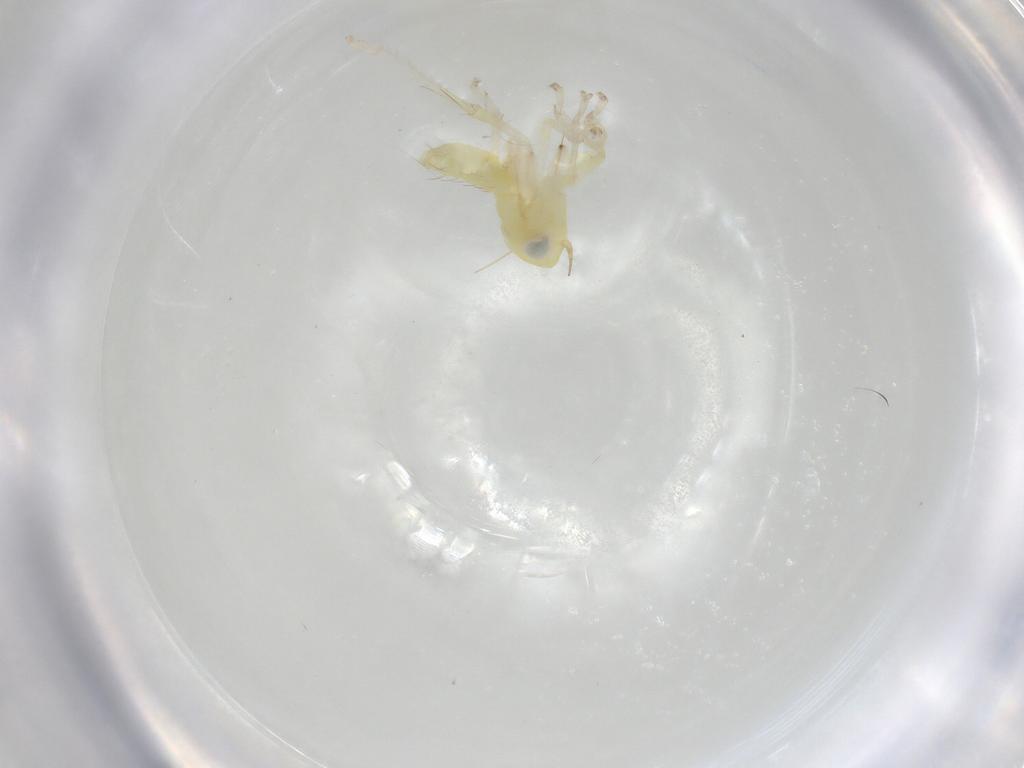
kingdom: Animalia
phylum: Arthropoda
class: Insecta
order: Hemiptera
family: Cicadellidae
